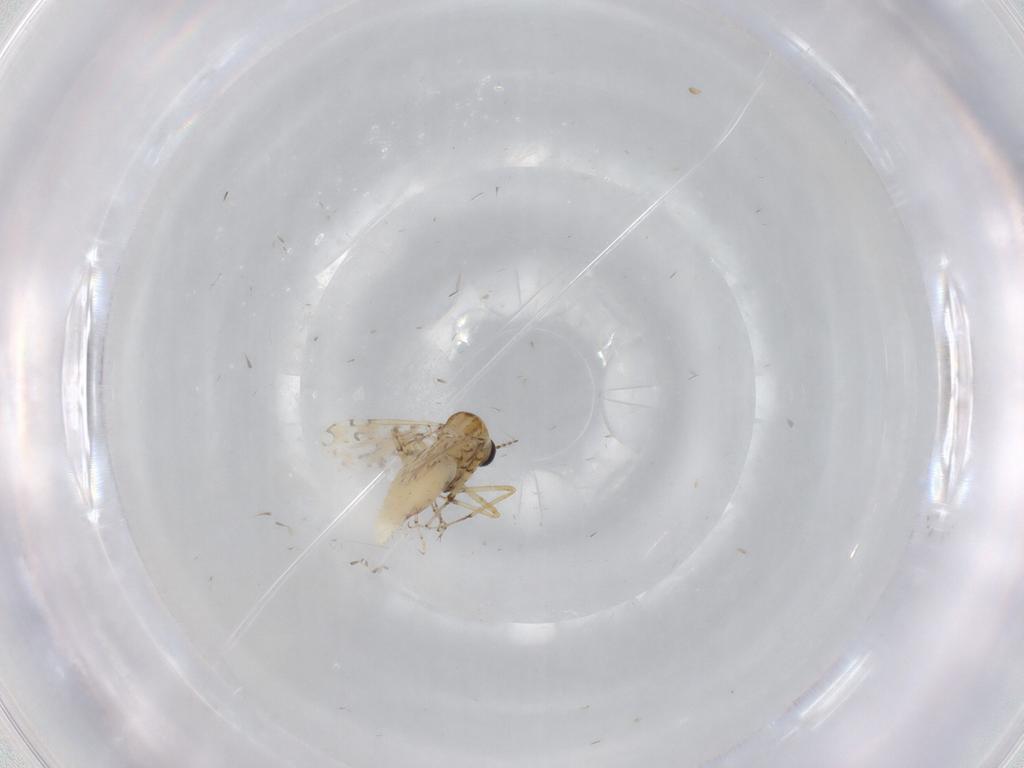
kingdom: Animalia
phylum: Arthropoda
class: Insecta
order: Diptera
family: Ceratopogonidae
